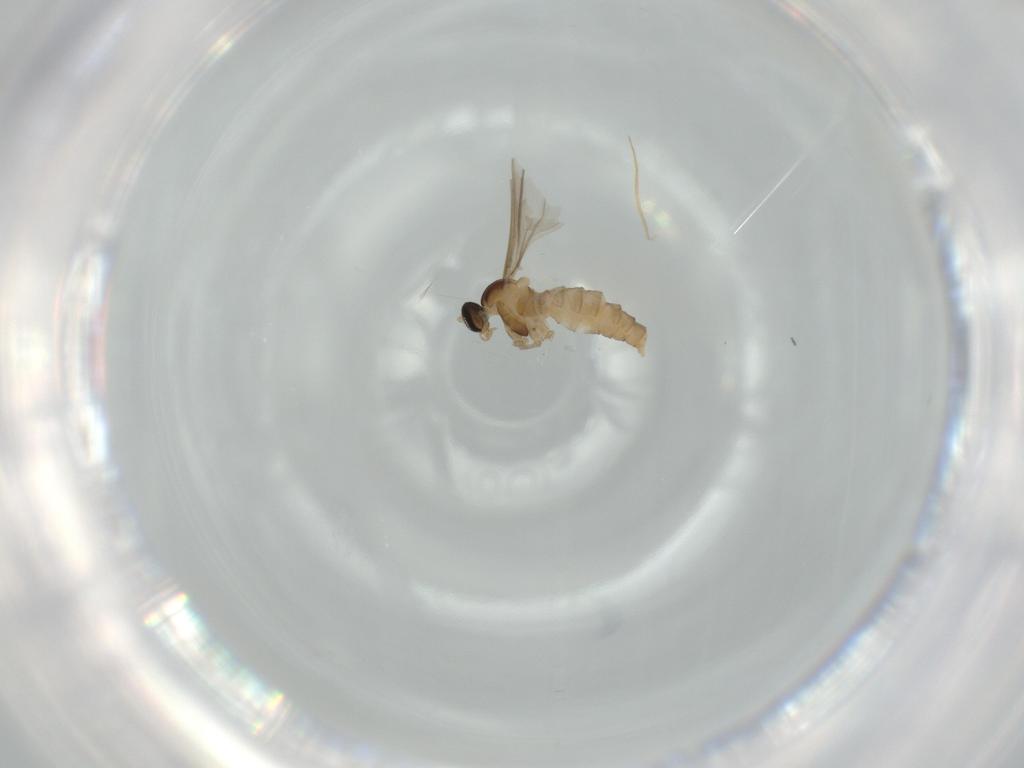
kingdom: Animalia
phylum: Arthropoda
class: Insecta
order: Diptera
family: Cecidomyiidae
